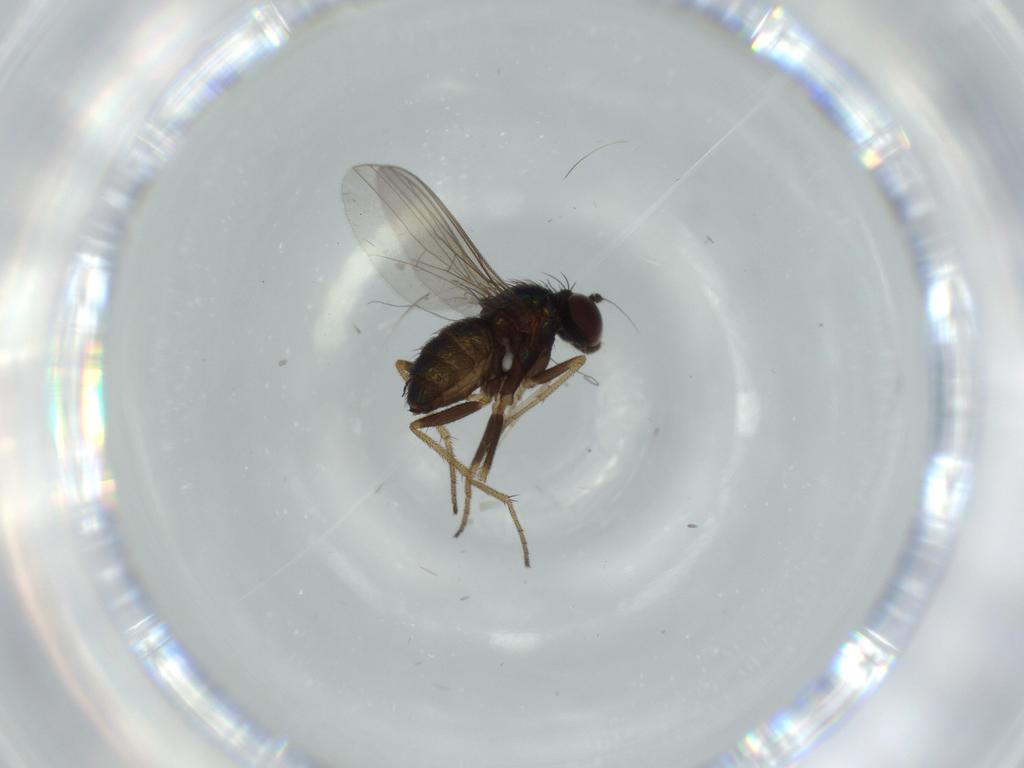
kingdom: Animalia
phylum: Arthropoda
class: Insecta
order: Diptera
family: Chironomidae
